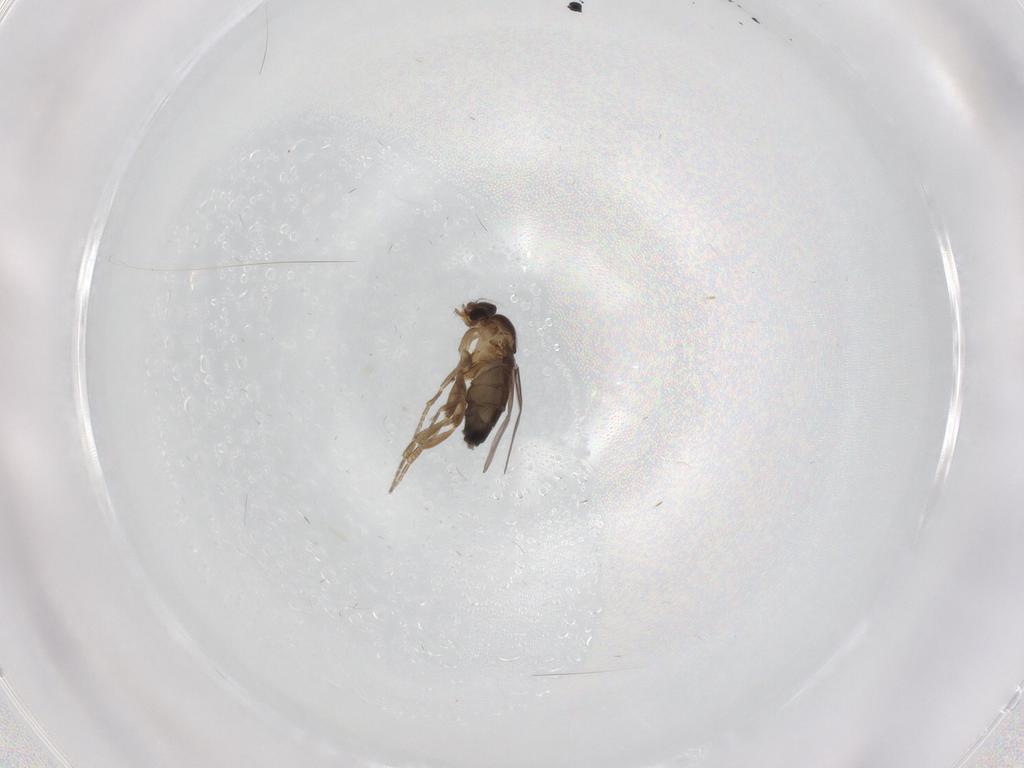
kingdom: Animalia
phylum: Arthropoda
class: Insecta
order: Diptera
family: Phoridae
